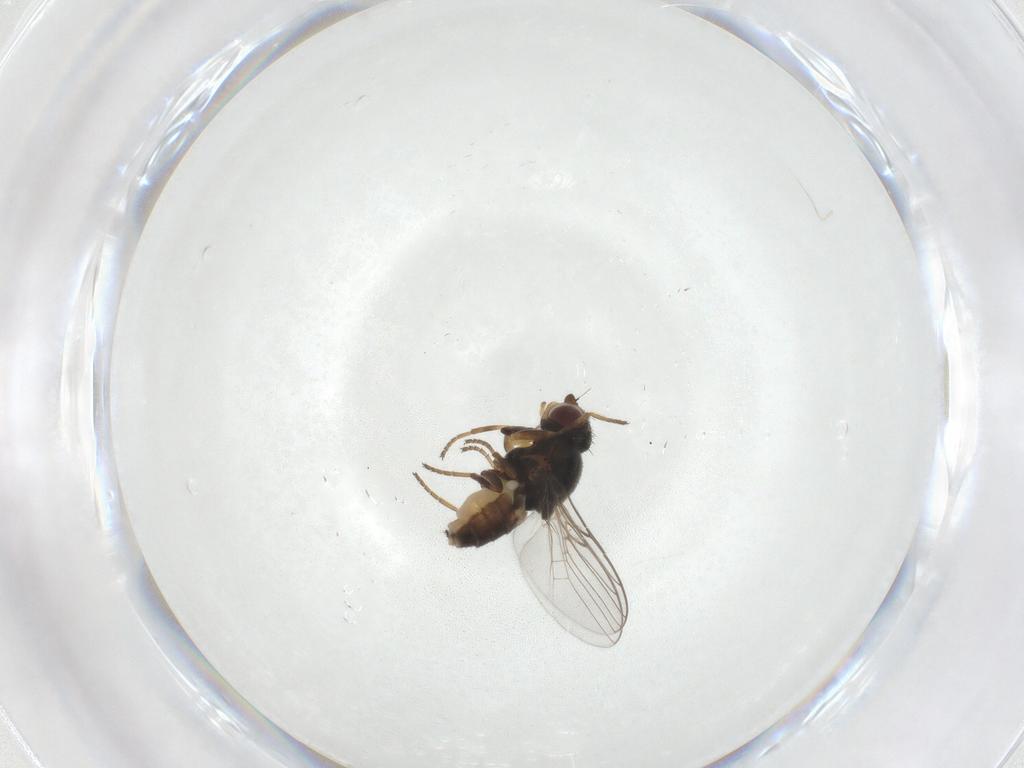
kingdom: Animalia
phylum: Arthropoda
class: Insecta
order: Diptera
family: Chloropidae
